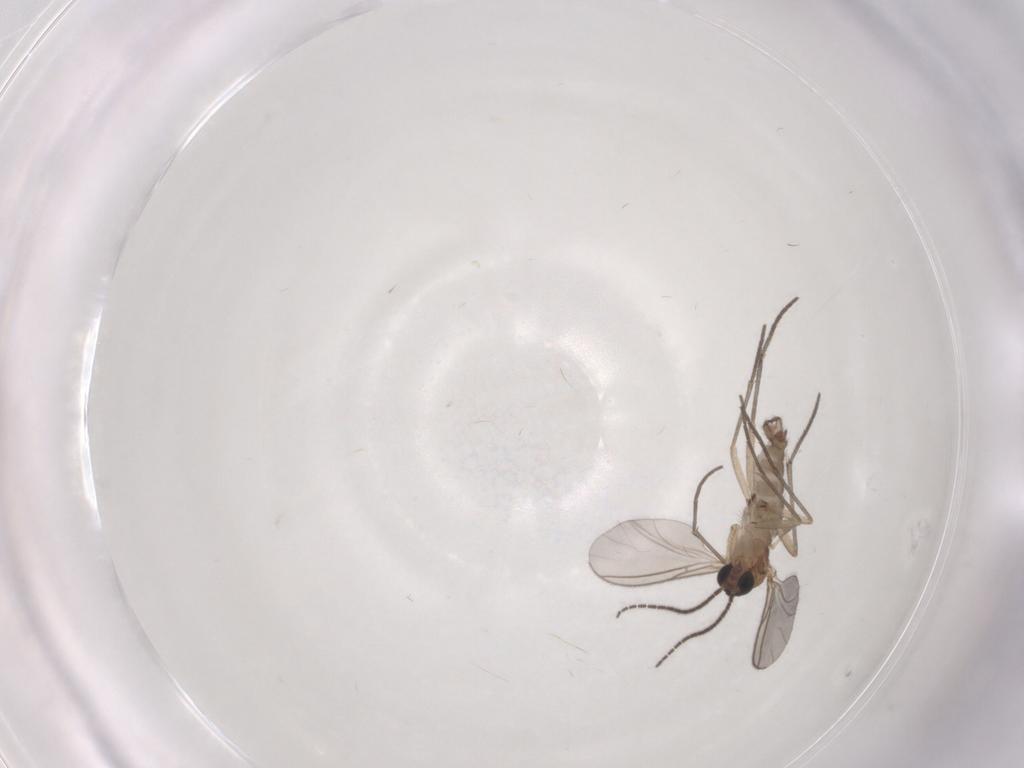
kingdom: Animalia
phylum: Arthropoda
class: Insecta
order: Diptera
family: Sciaridae
